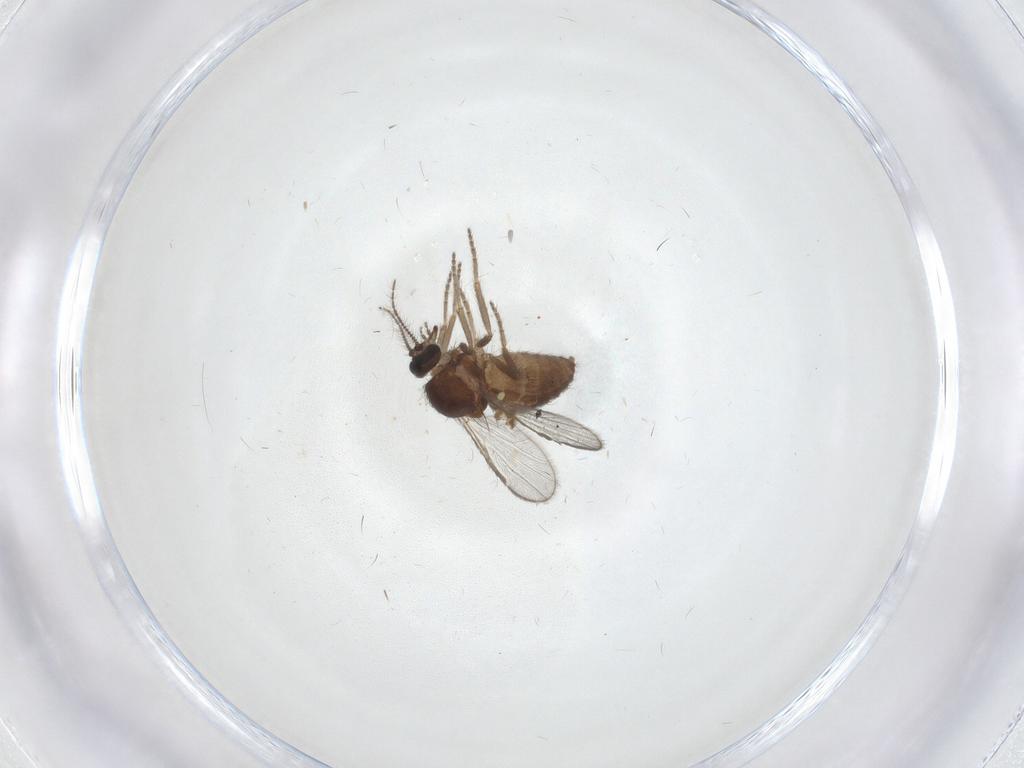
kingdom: Animalia
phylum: Arthropoda
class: Insecta
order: Diptera
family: Ceratopogonidae
